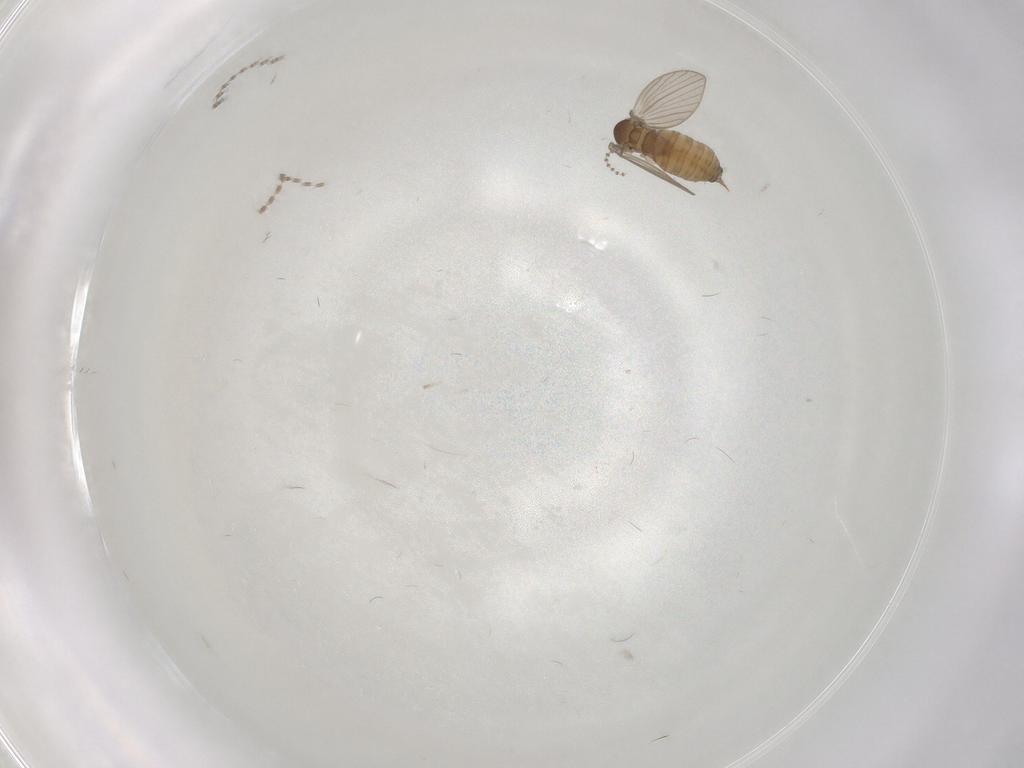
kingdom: Animalia
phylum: Arthropoda
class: Insecta
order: Diptera
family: Psychodidae
